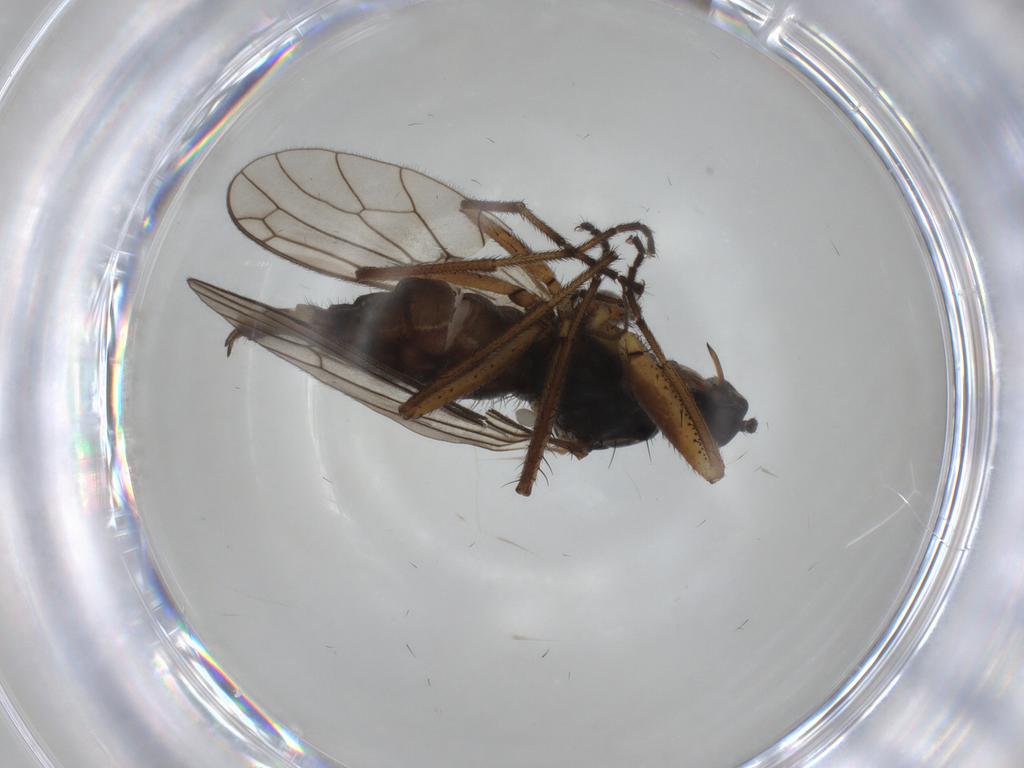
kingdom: Animalia
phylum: Arthropoda
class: Insecta
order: Diptera
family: Empididae
